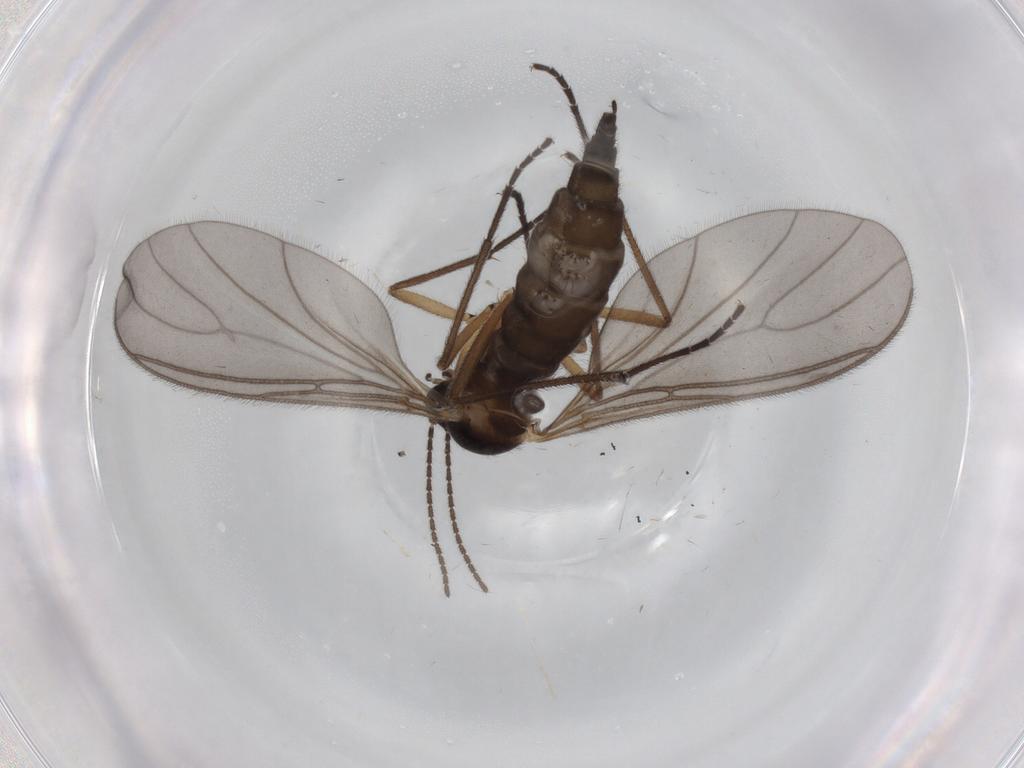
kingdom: Animalia
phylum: Arthropoda
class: Insecta
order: Diptera
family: Sciaridae
